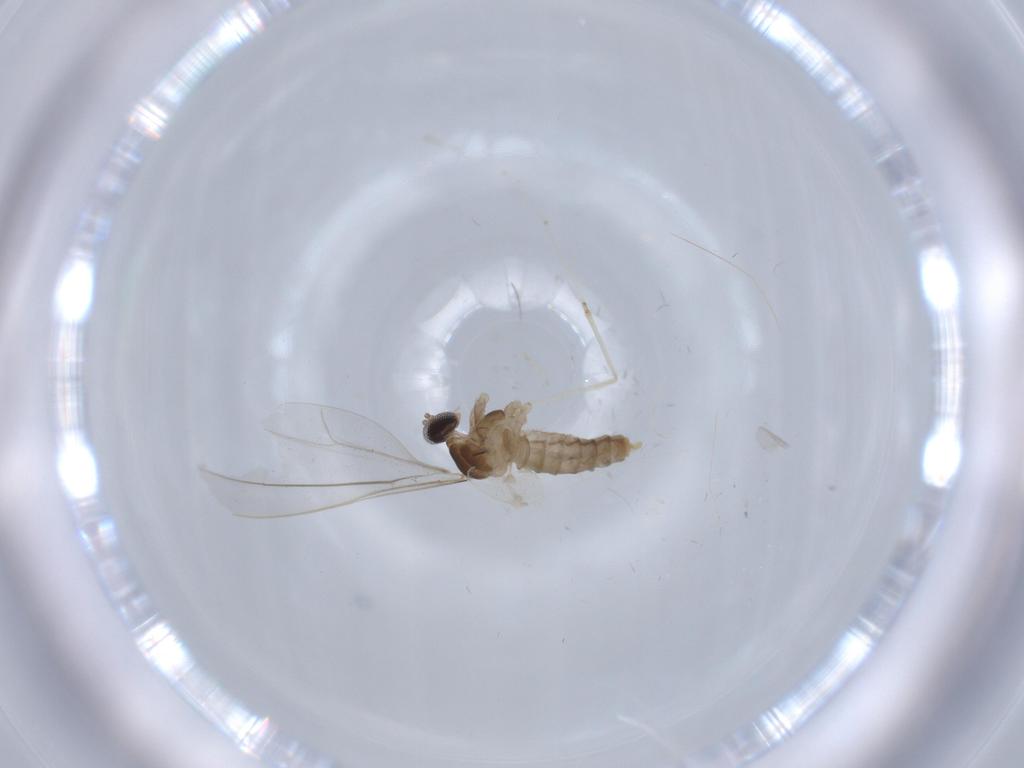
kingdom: Animalia
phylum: Arthropoda
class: Insecta
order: Diptera
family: Cecidomyiidae
